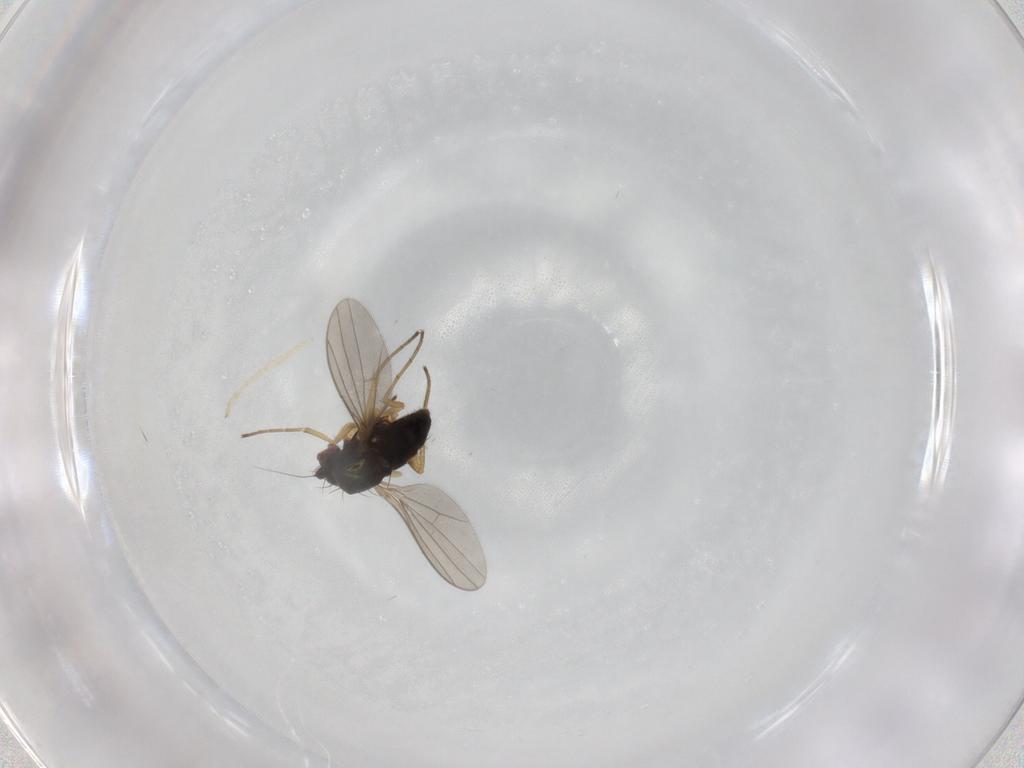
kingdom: Animalia
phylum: Arthropoda
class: Insecta
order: Diptera
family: Dolichopodidae
